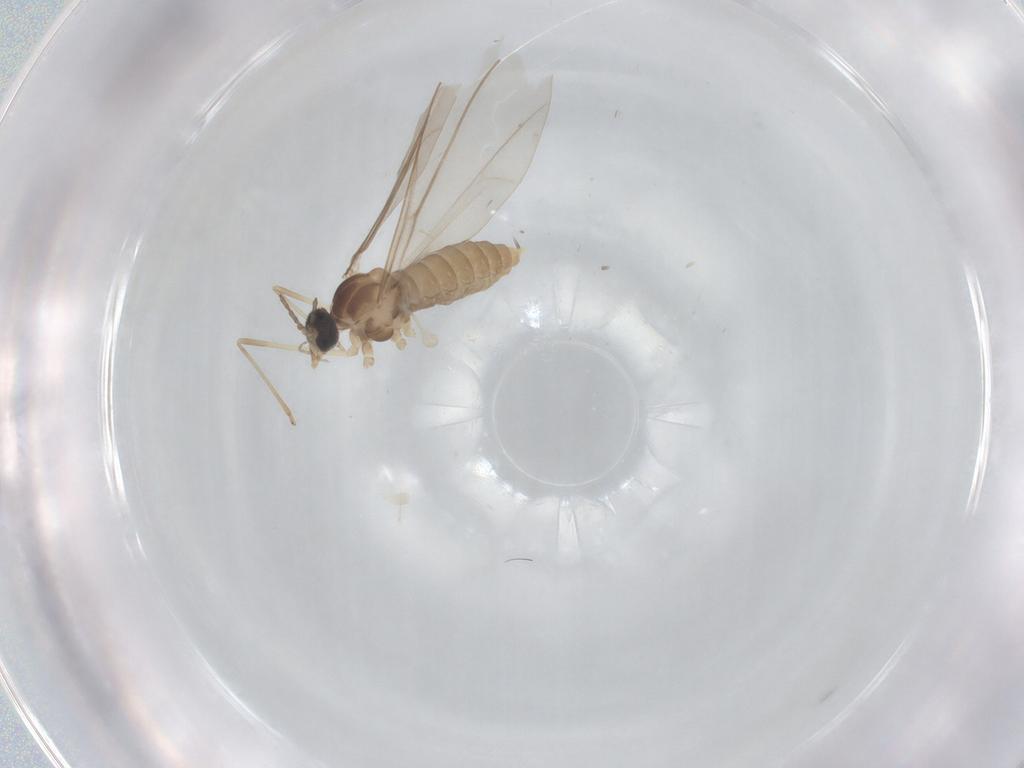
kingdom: Animalia
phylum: Arthropoda
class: Insecta
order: Diptera
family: Cecidomyiidae
